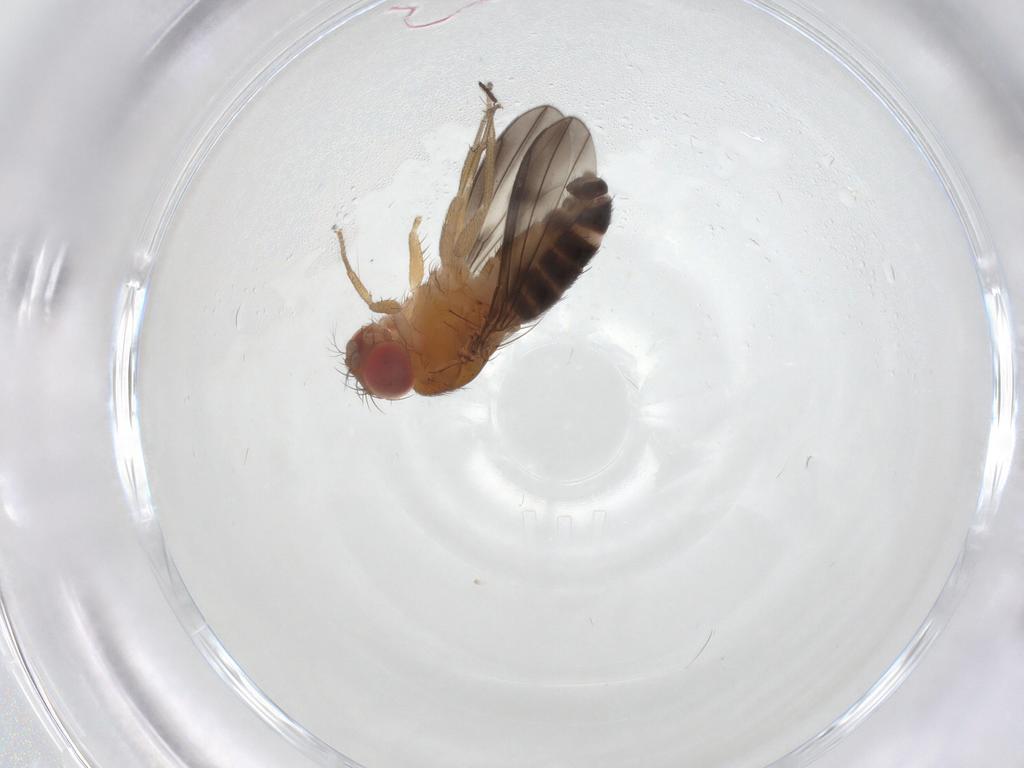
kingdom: Animalia
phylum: Arthropoda
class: Insecta
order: Diptera
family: Drosophilidae
